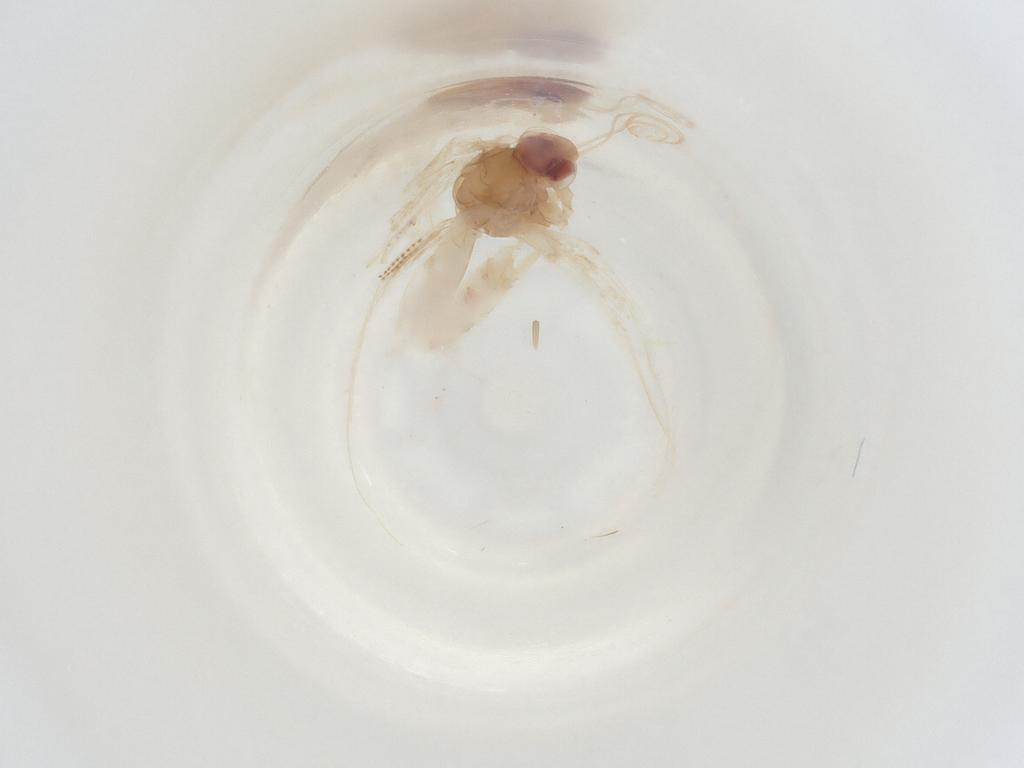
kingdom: Animalia
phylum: Arthropoda
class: Insecta
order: Lepidoptera
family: Pterophoridae
